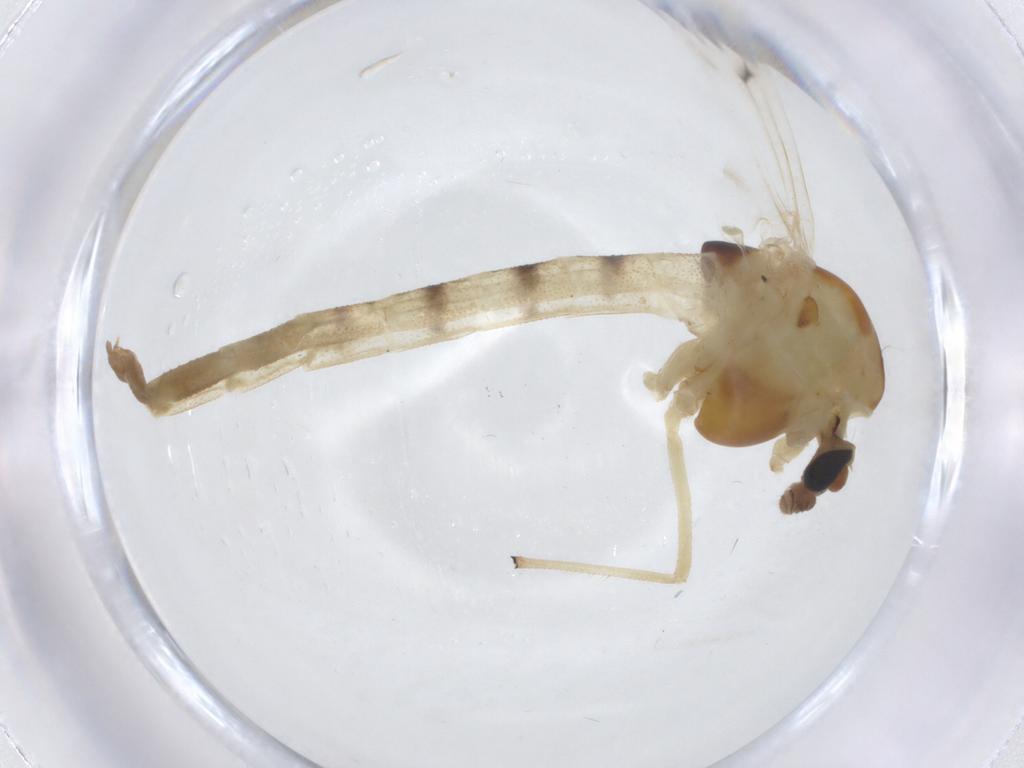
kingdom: Animalia
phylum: Arthropoda
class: Insecta
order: Diptera
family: Chironomidae
